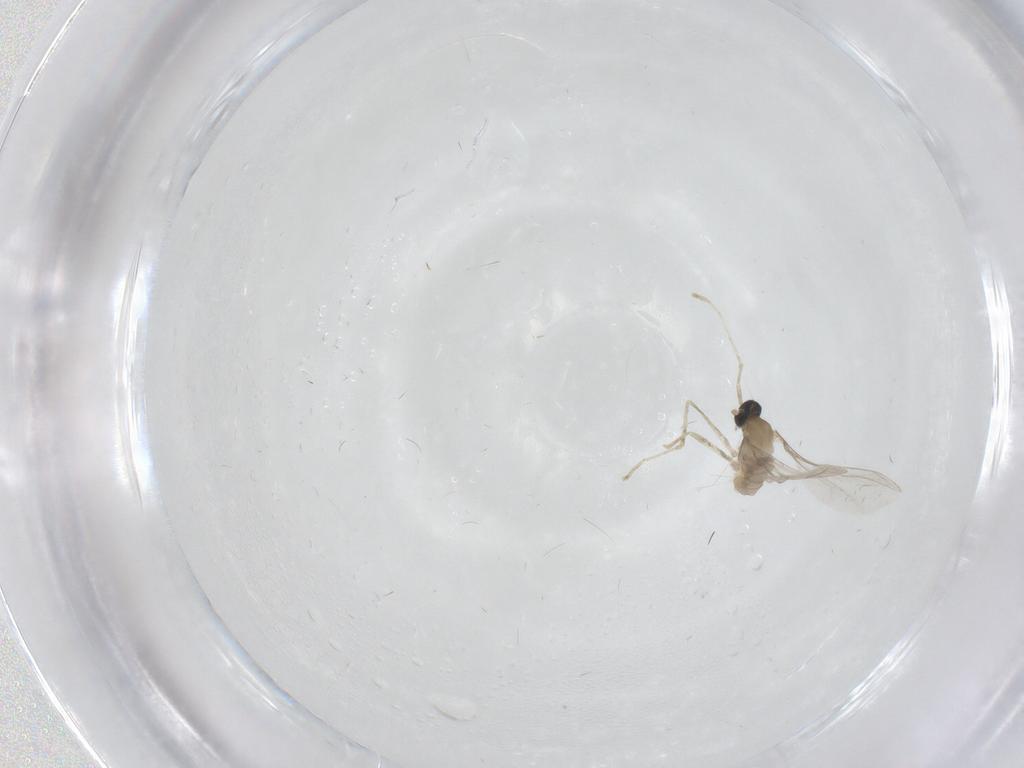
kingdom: Animalia
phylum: Arthropoda
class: Insecta
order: Diptera
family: Cecidomyiidae
